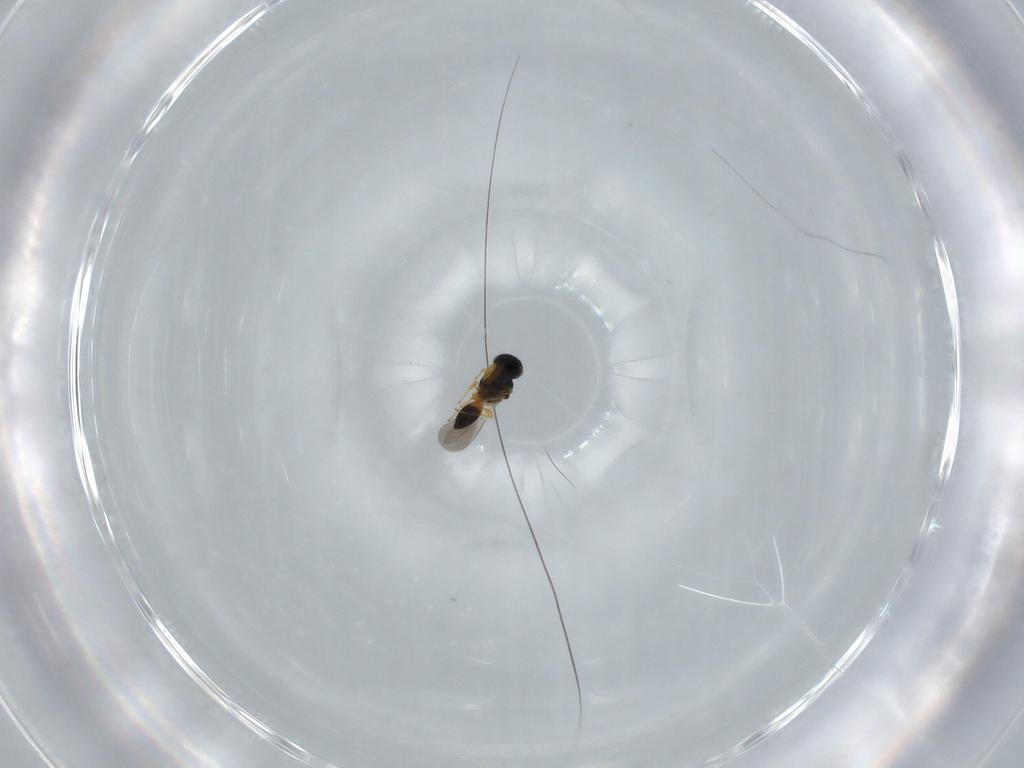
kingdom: Animalia
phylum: Arthropoda
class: Insecta
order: Hymenoptera
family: Platygastridae
